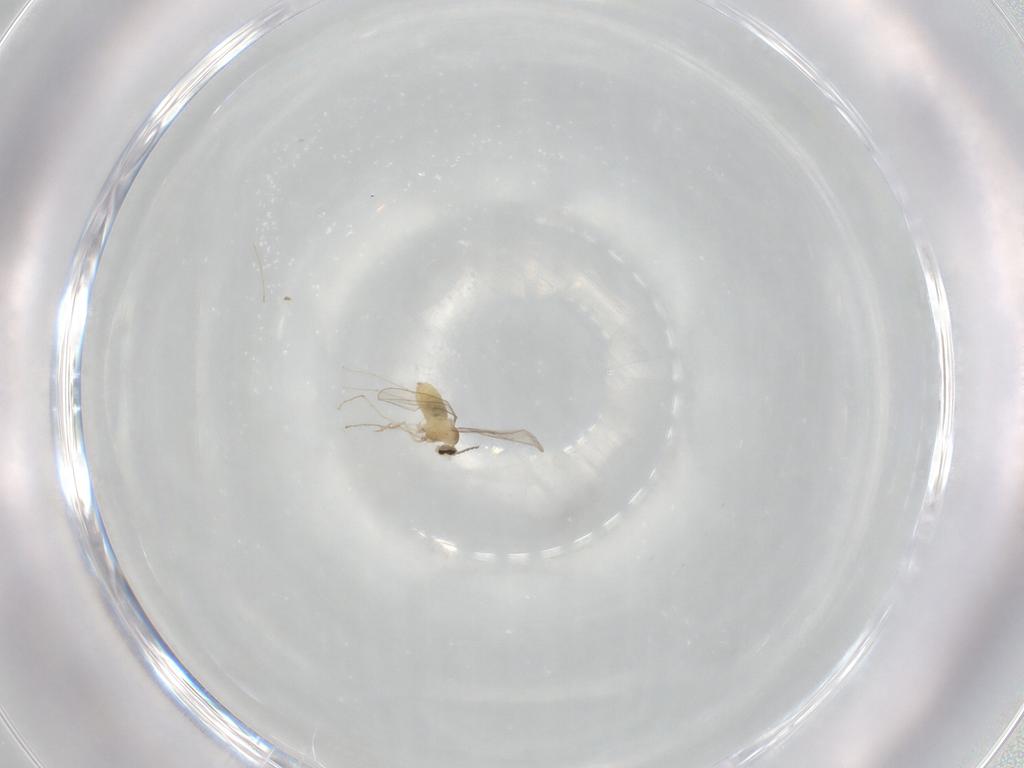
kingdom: Animalia
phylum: Arthropoda
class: Insecta
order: Diptera
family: Cecidomyiidae
